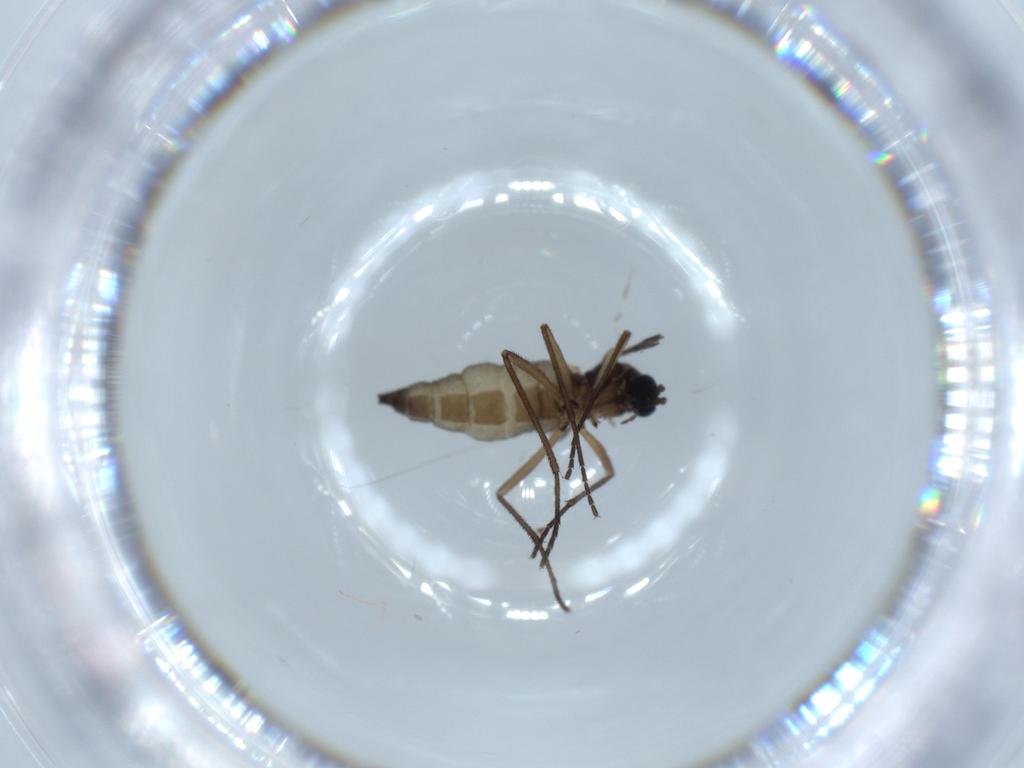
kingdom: Animalia
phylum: Arthropoda
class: Insecta
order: Diptera
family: Sciaridae
